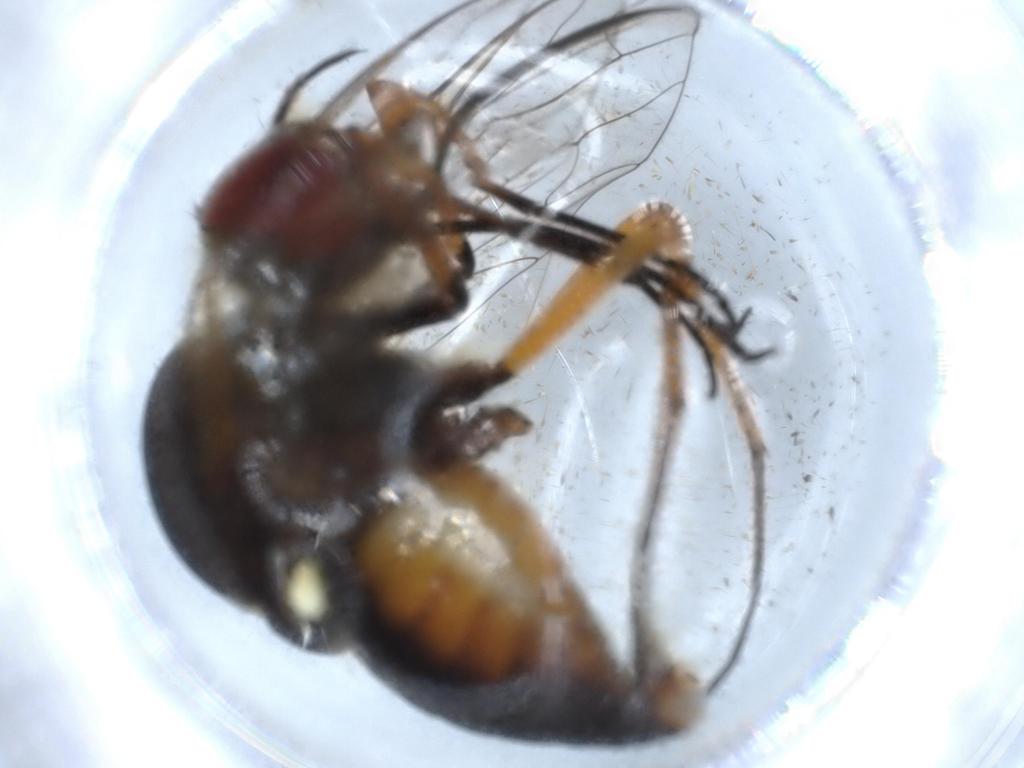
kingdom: Animalia
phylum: Arthropoda
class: Insecta
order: Diptera
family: Bombyliidae
